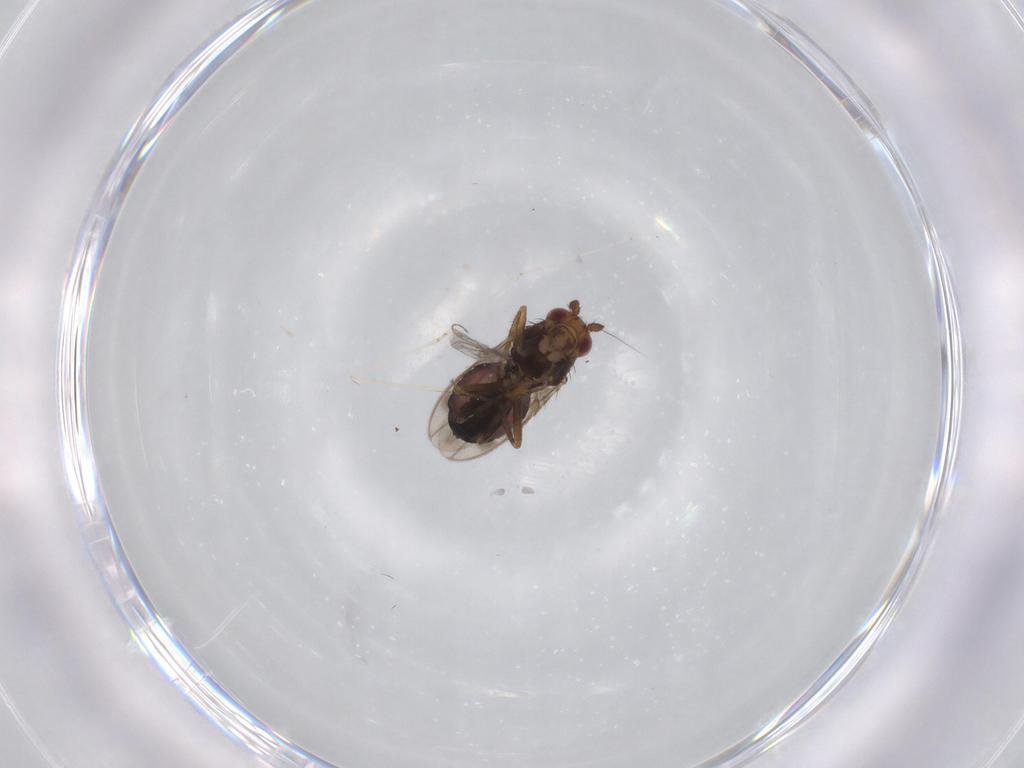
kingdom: Animalia
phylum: Arthropoda
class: Insecta
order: Diptera
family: Sphaeroceridae
